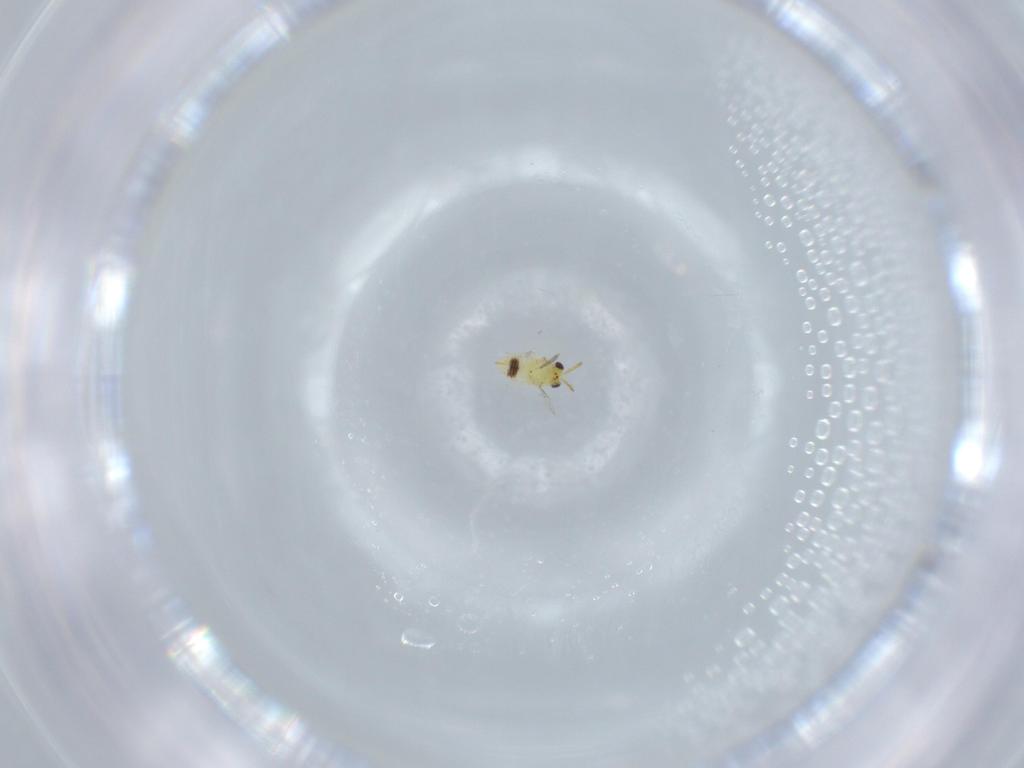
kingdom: Animalia
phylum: Arthropoda
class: Insecta
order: Hymenoptera
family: Aphelinidae
